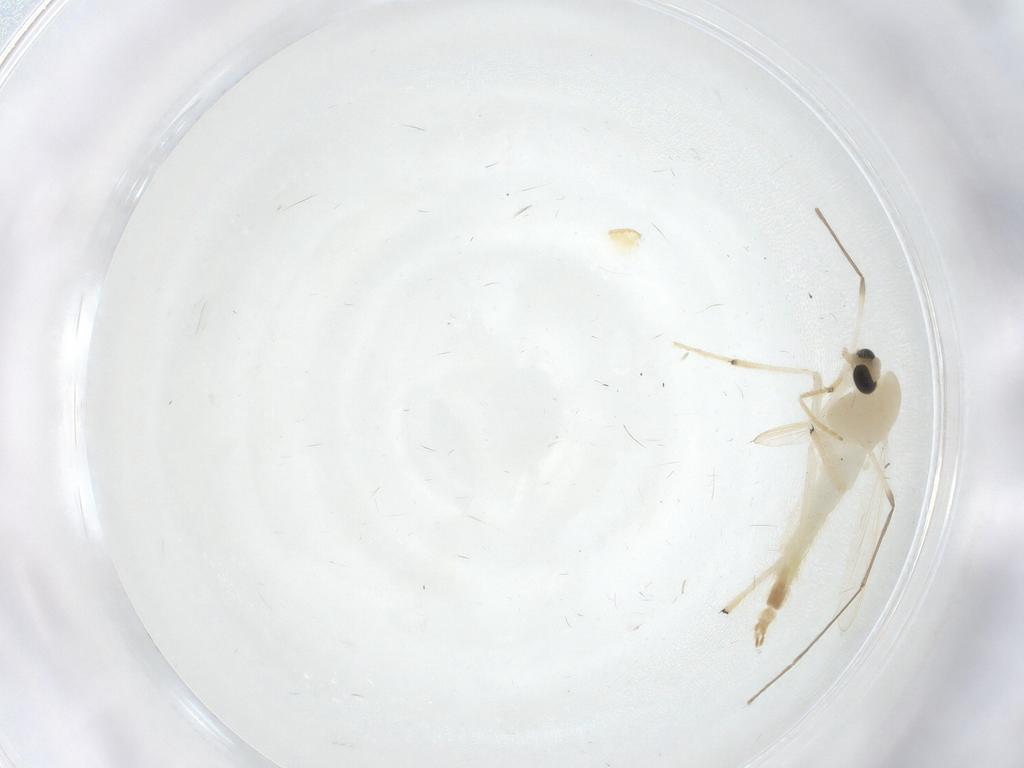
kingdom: Animalia
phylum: Arthropoda
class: Insecta
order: Diptera
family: Chironomidae
